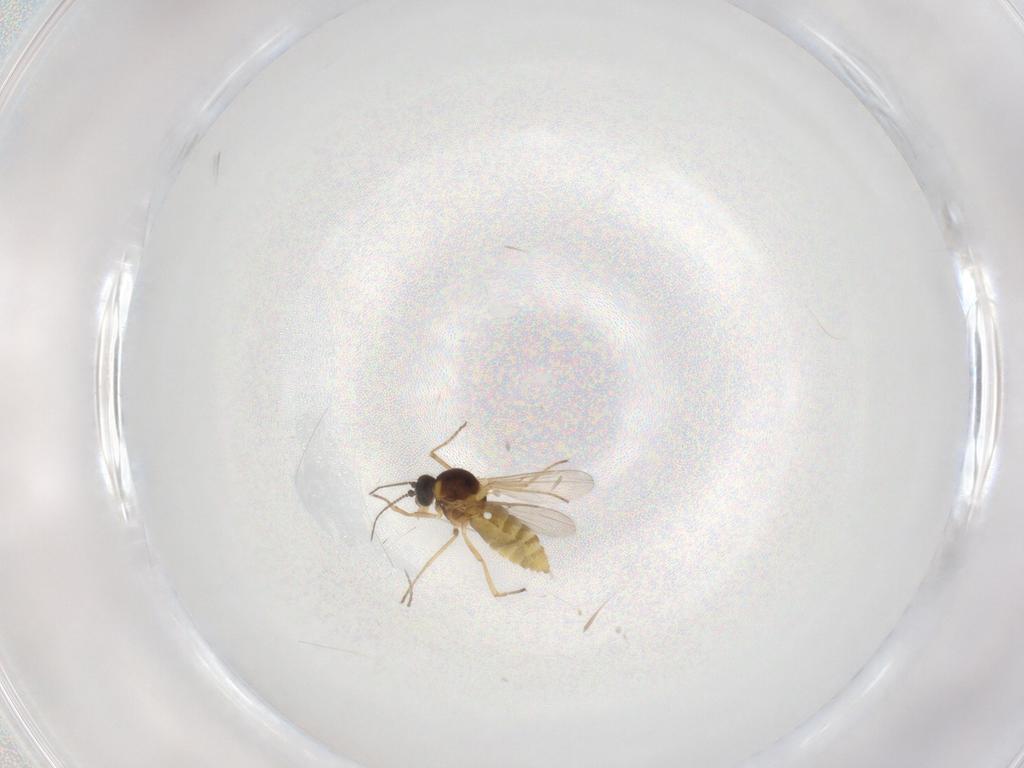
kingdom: Animalia
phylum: Arthropoda
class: Insecta
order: Diptera
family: Ceratopogonidae
